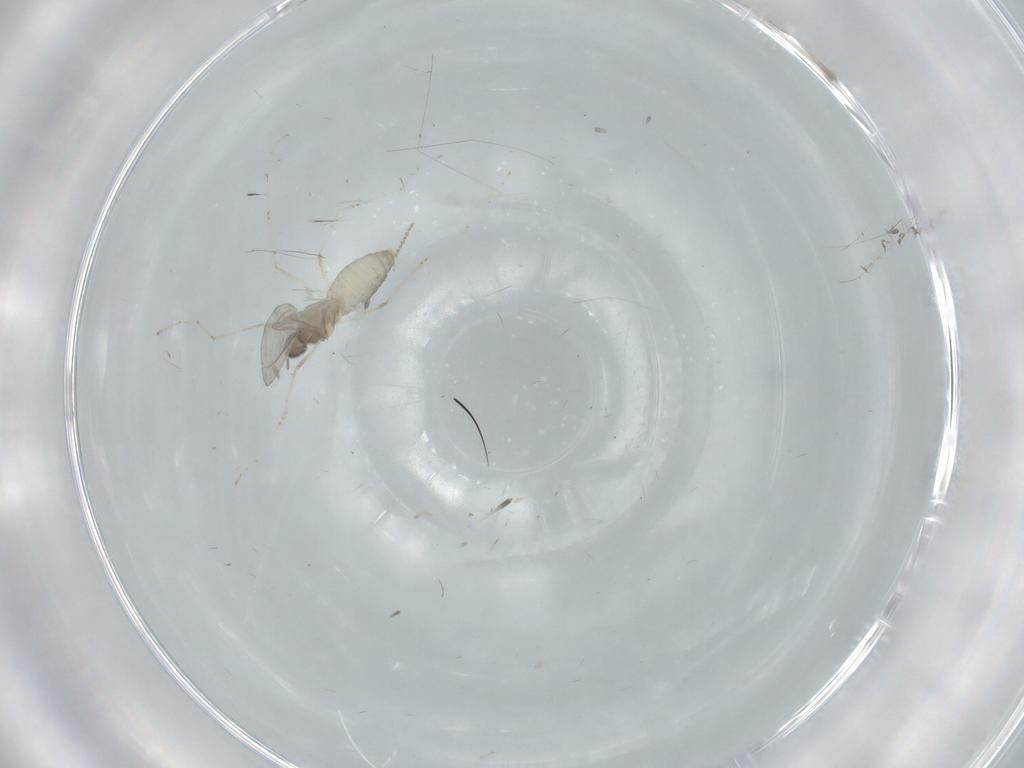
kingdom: Animalia
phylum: Arthropoda
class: Insecta
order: Diptera
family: Cecidomyiidae
